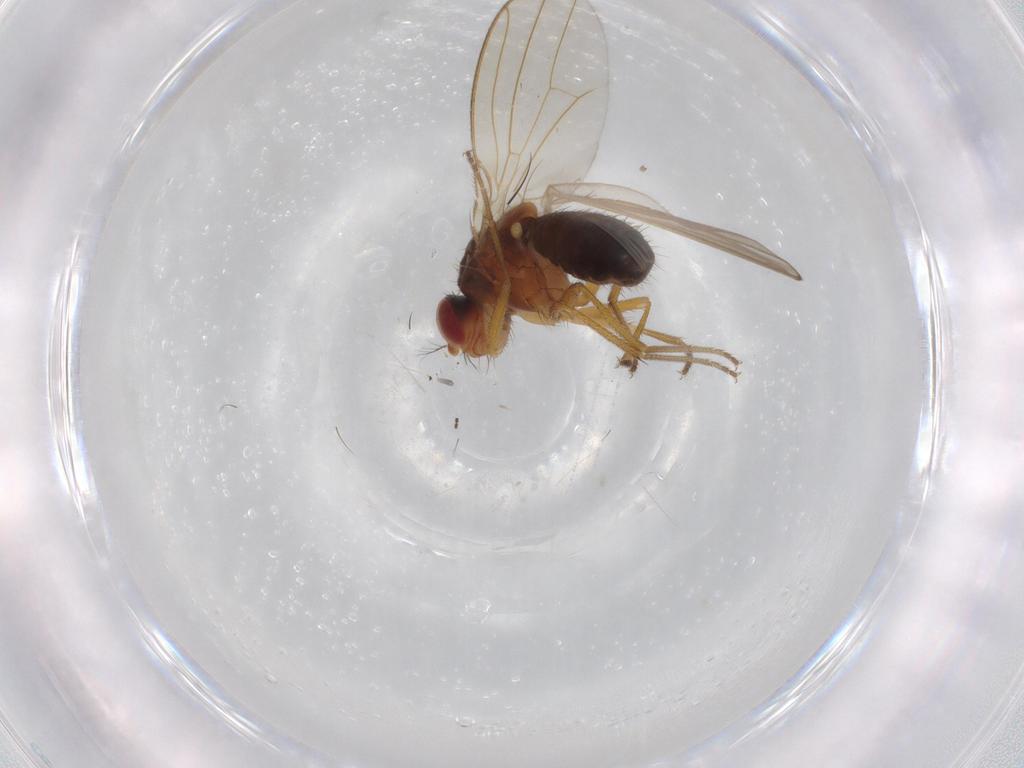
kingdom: Animalia
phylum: Arthropoda
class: Insecta
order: Diptera
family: Drosophilidae
